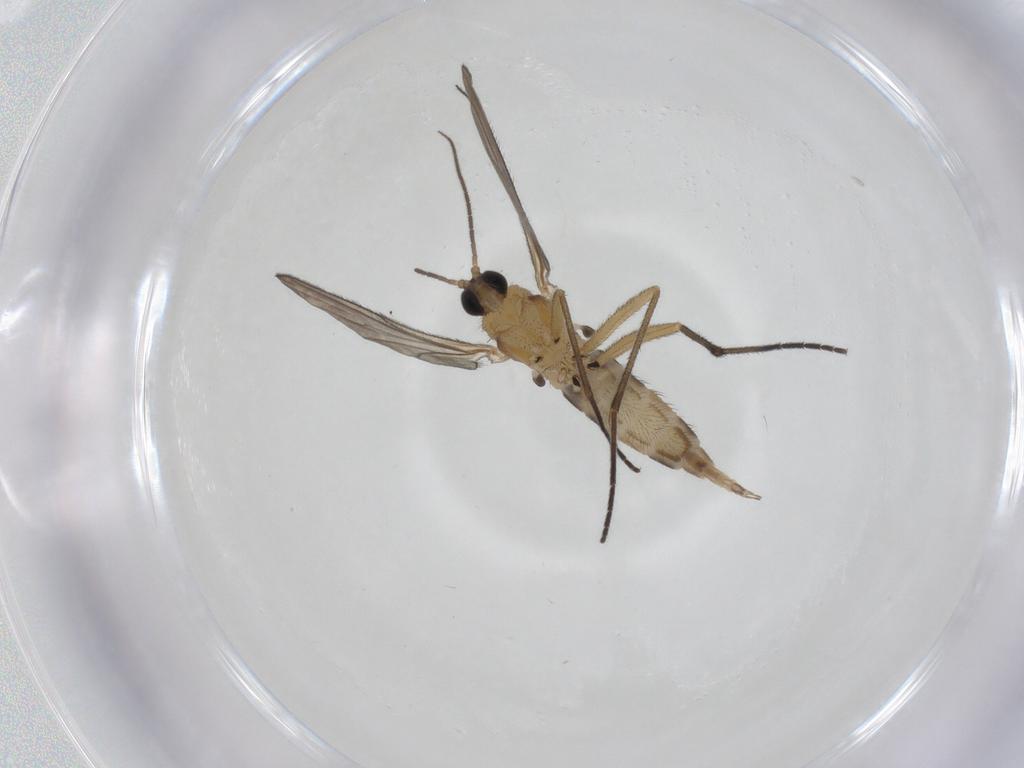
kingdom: Animalia
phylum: Arthropoda
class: Insecta
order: Diptera
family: Sciaridae
